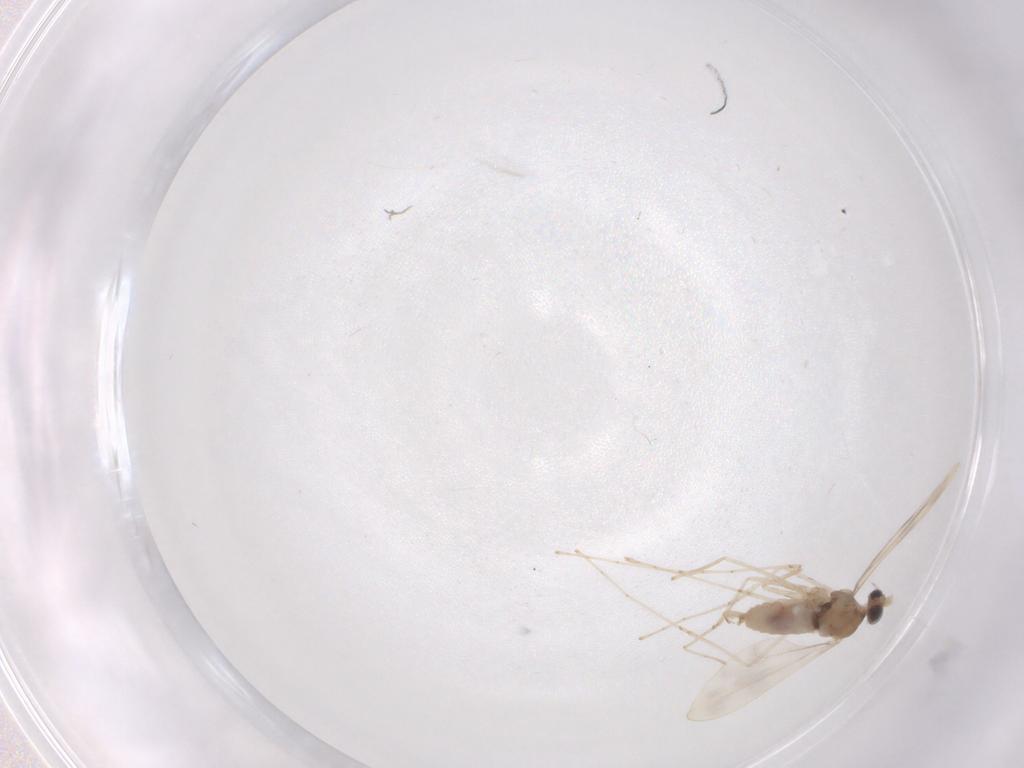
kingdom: Animalia
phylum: Arthropoda
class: Insecta
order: Diptera
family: Cecidomyiidae
